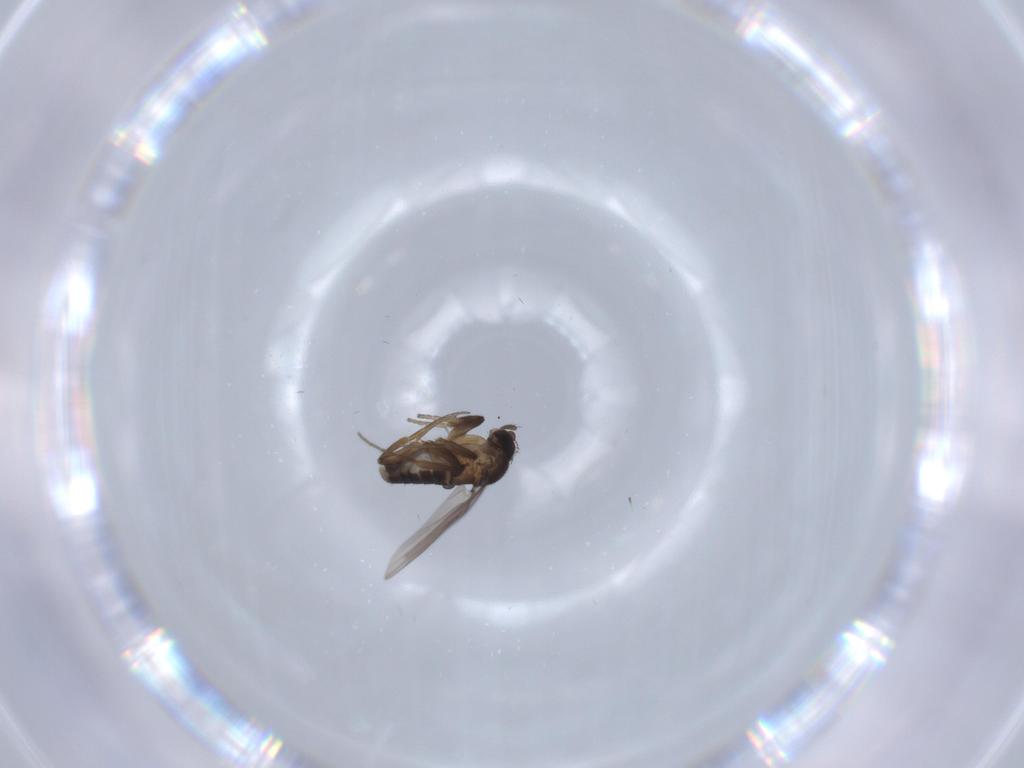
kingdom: Animalia
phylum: Arthropoda
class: Insecta
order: Diptera
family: Phoridae
